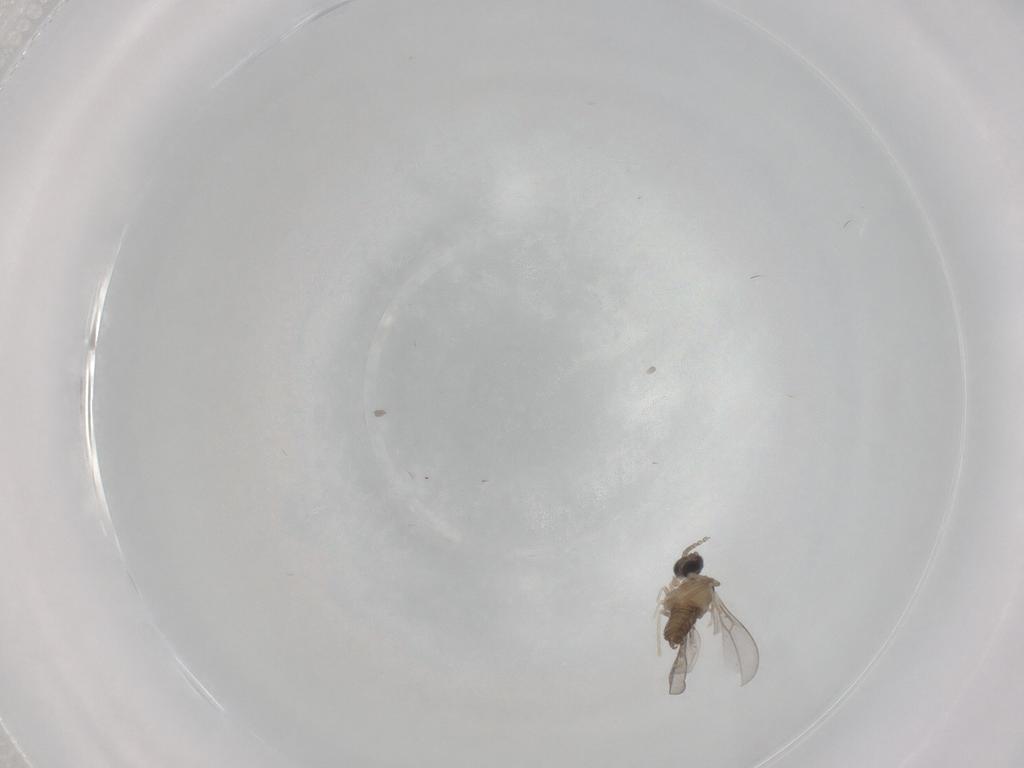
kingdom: Animalia
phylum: Arthropoda
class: Insecta
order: Diptera
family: Cecidomyiidae
